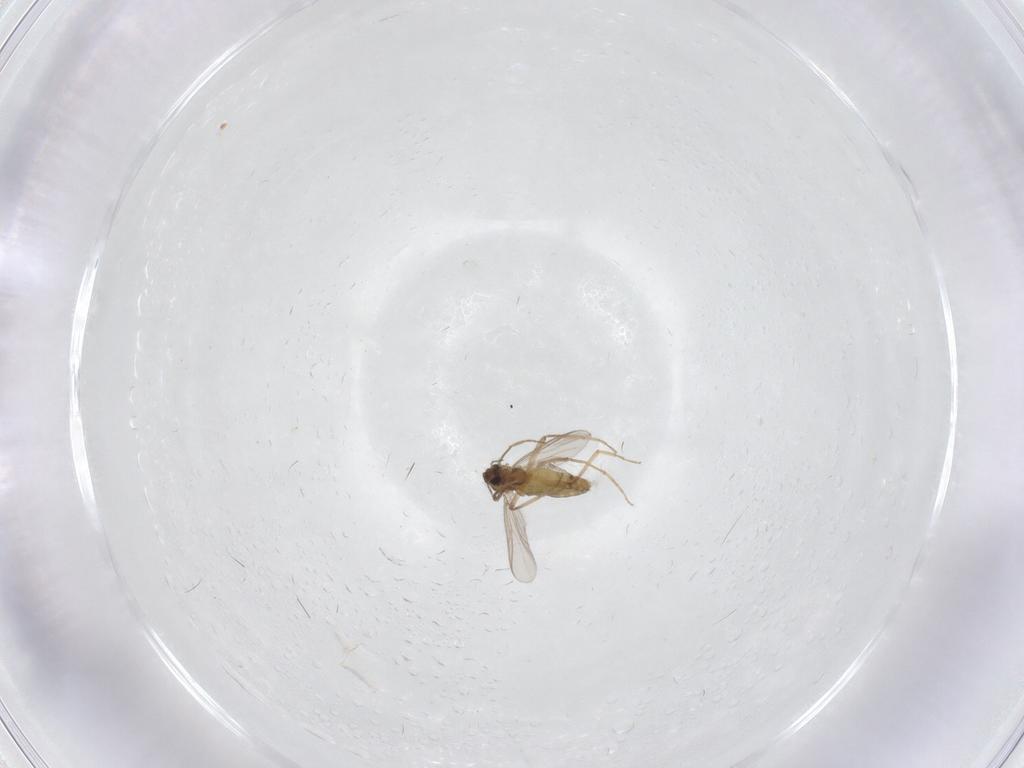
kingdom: Animalia
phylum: Arthropoda
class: Insecta
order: Diptera
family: Chironomidae
